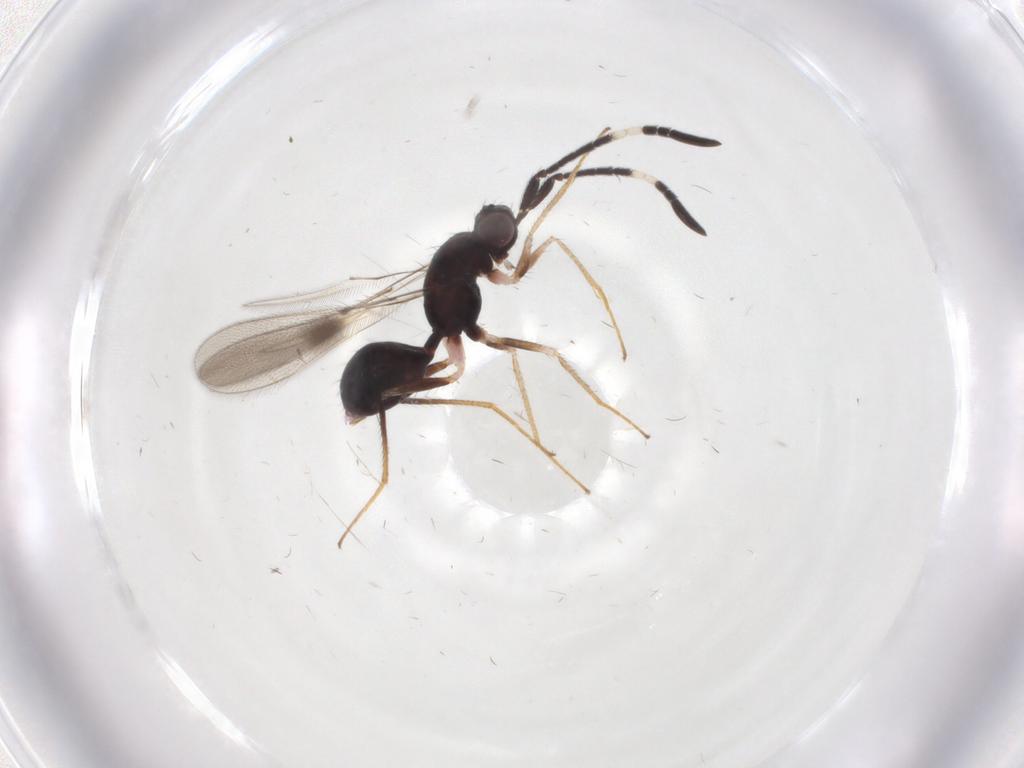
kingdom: Animalia
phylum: Arthropoda
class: Insecta
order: Hymenoptera
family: Mymaridae
